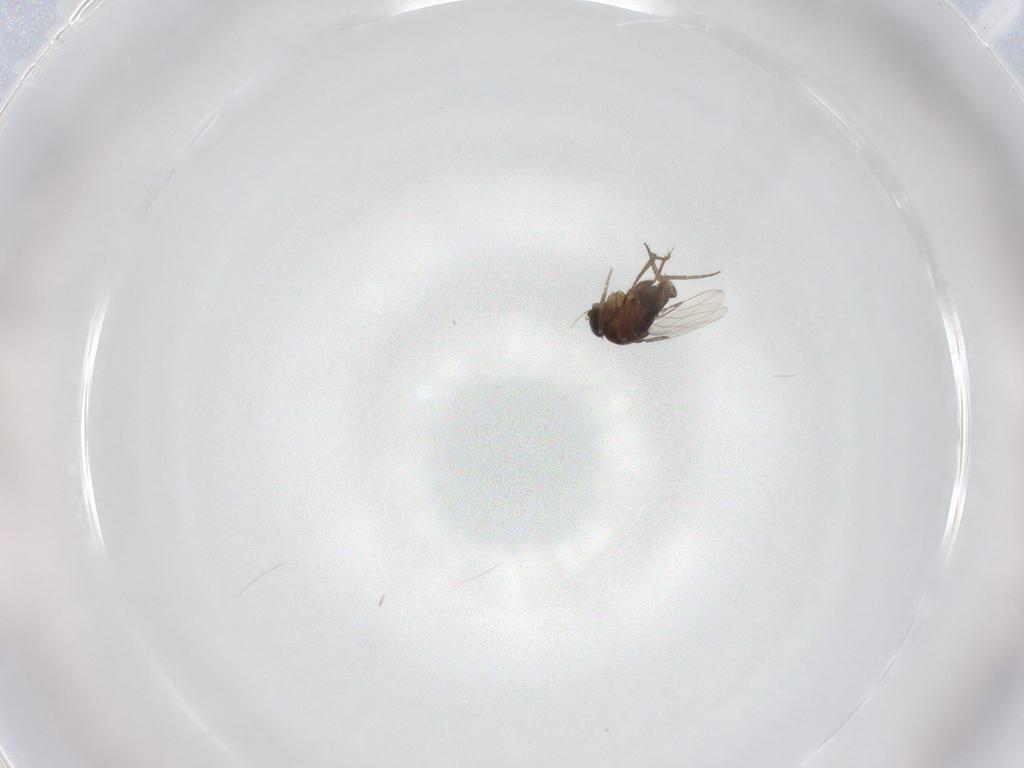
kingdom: Animalia
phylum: Arthropoda
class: Insecta
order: Diptera
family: Phoridae
